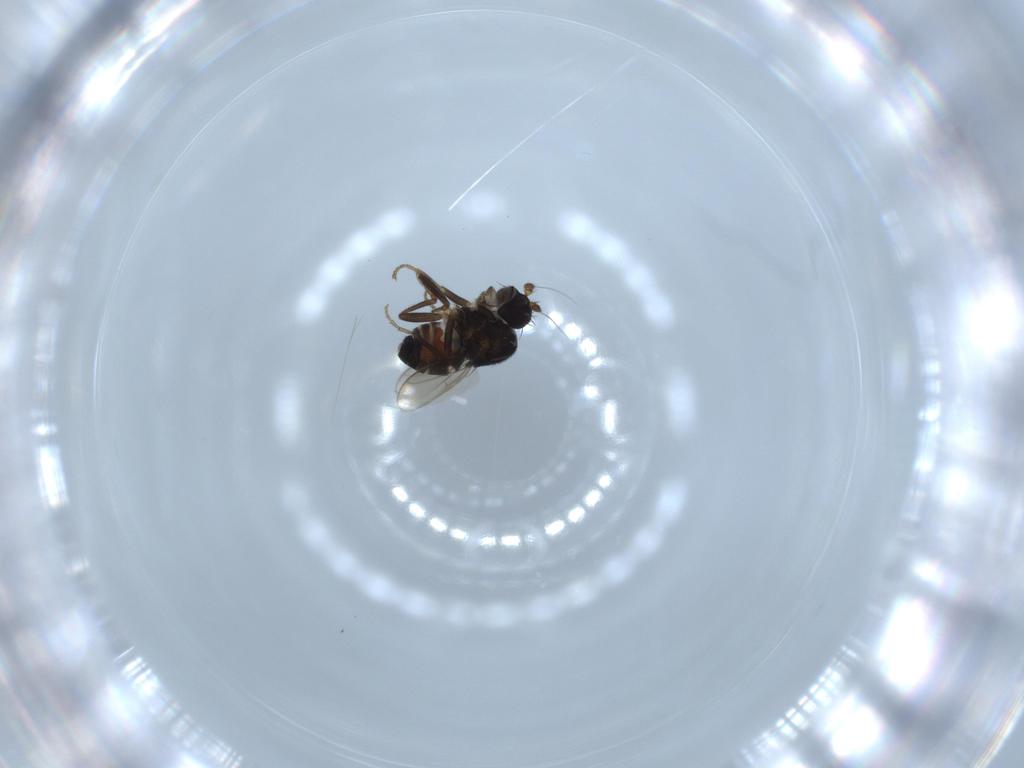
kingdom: Animalia
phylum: Arthropoda
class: Insecta
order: Diptera
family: Sphaeroceridae
